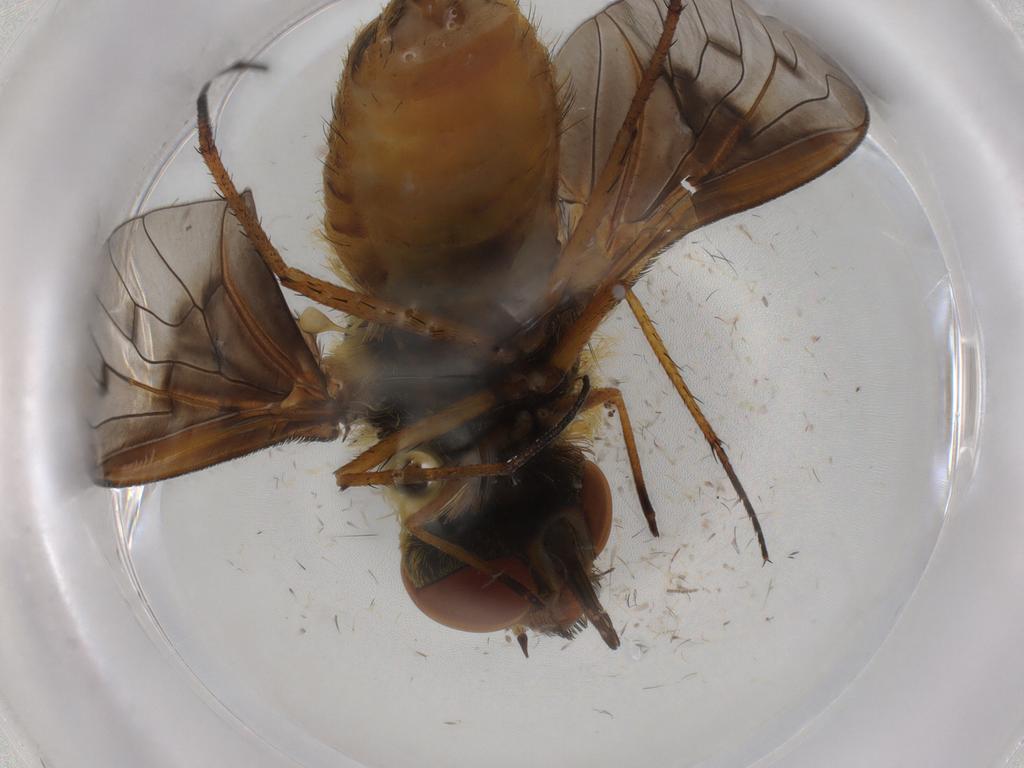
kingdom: Animalia
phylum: Arthropoda
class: Insecta
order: Diptera
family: Bombyliidae
